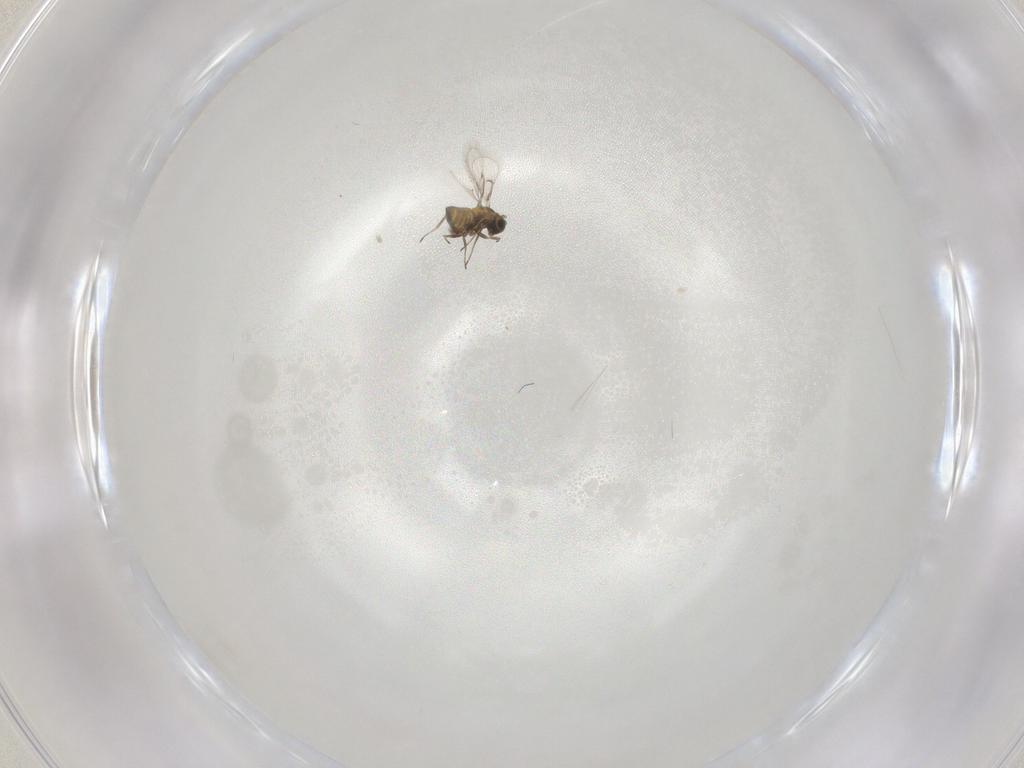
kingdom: Animalia
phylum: Arthropoda
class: Insecta
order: Hymenoptera
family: Trichogrammatidae
